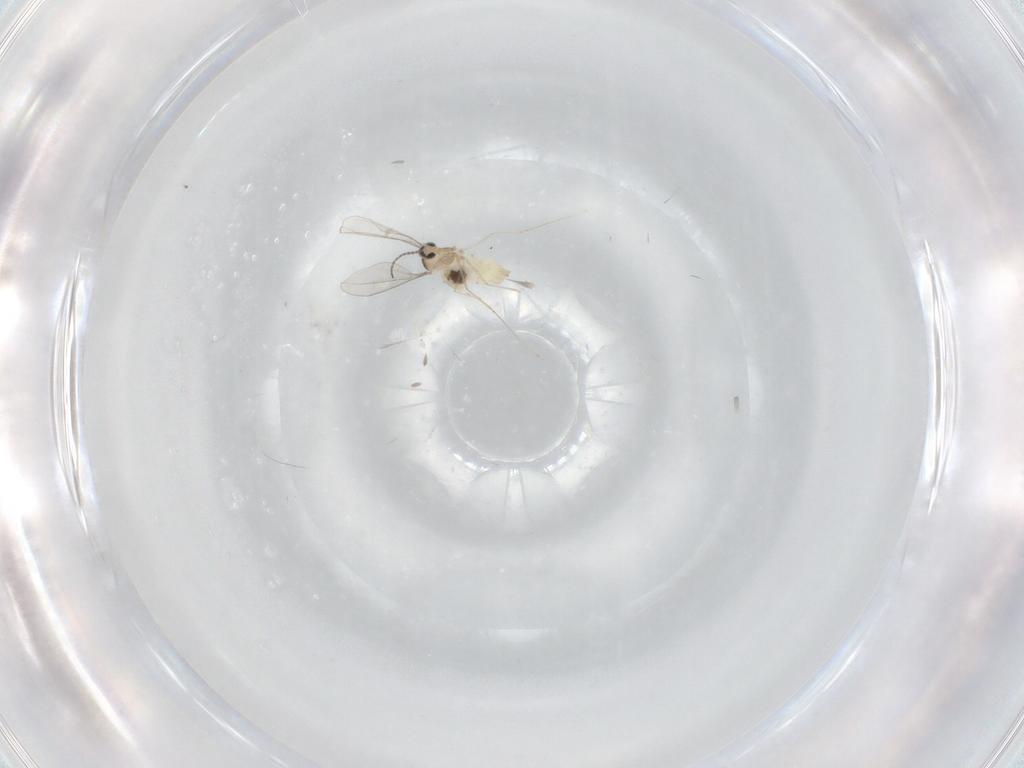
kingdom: Animalia
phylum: Arthropoda
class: Insecta
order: Diptera
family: Cecidomyiidae
